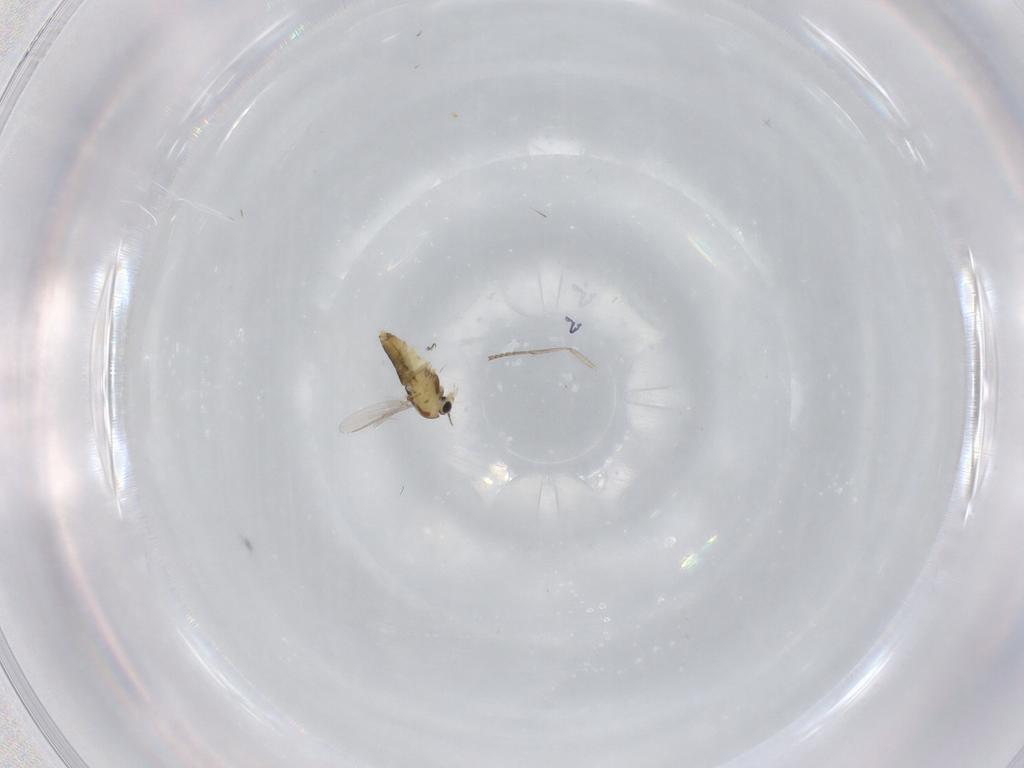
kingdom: Animalia
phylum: Arthropoda
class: Insecta
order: Diptera
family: Chironomidae
